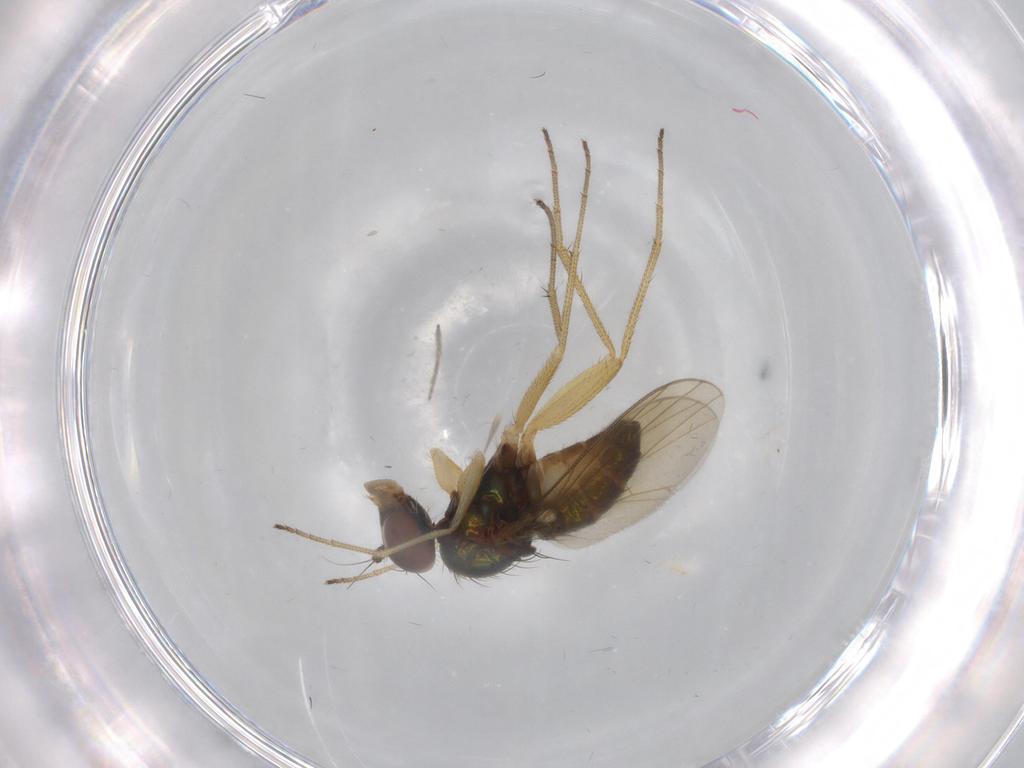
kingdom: Animalia
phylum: Arthropoda
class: Insecta
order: Diptera
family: Dolichopodidae
